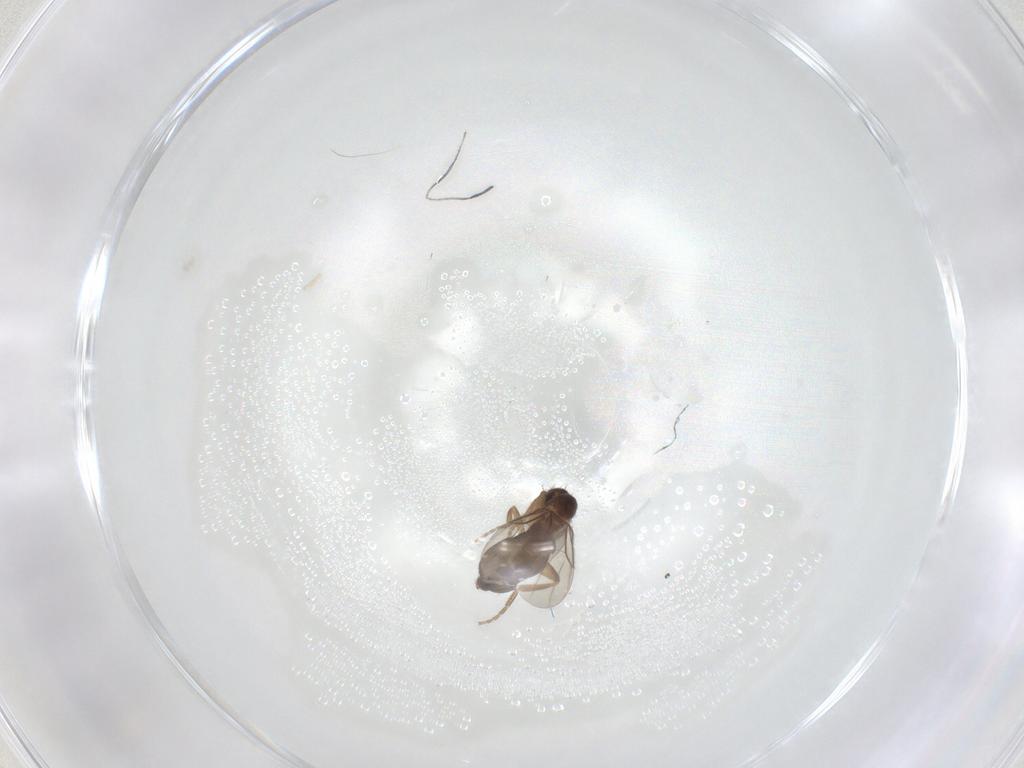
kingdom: Animalia
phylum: Arthropoda
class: Insecta
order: Diptera
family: Phoridae
